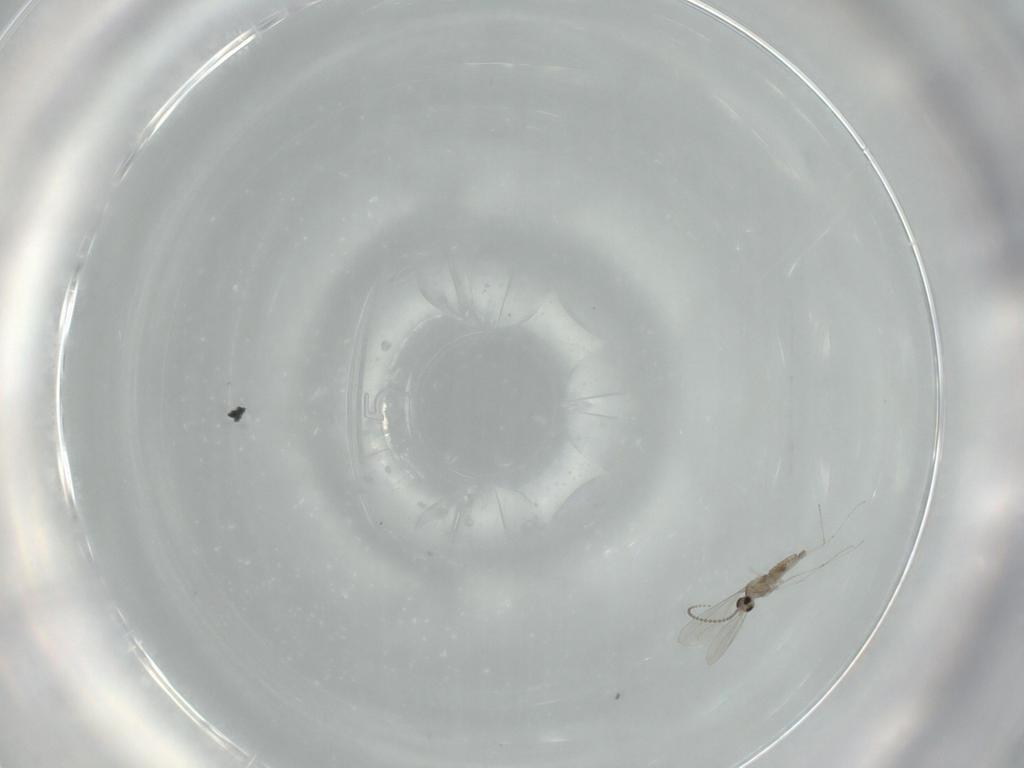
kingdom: Animalia
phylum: Arthropoda
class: Insecta
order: Diptera
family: Cecidomyiidae
